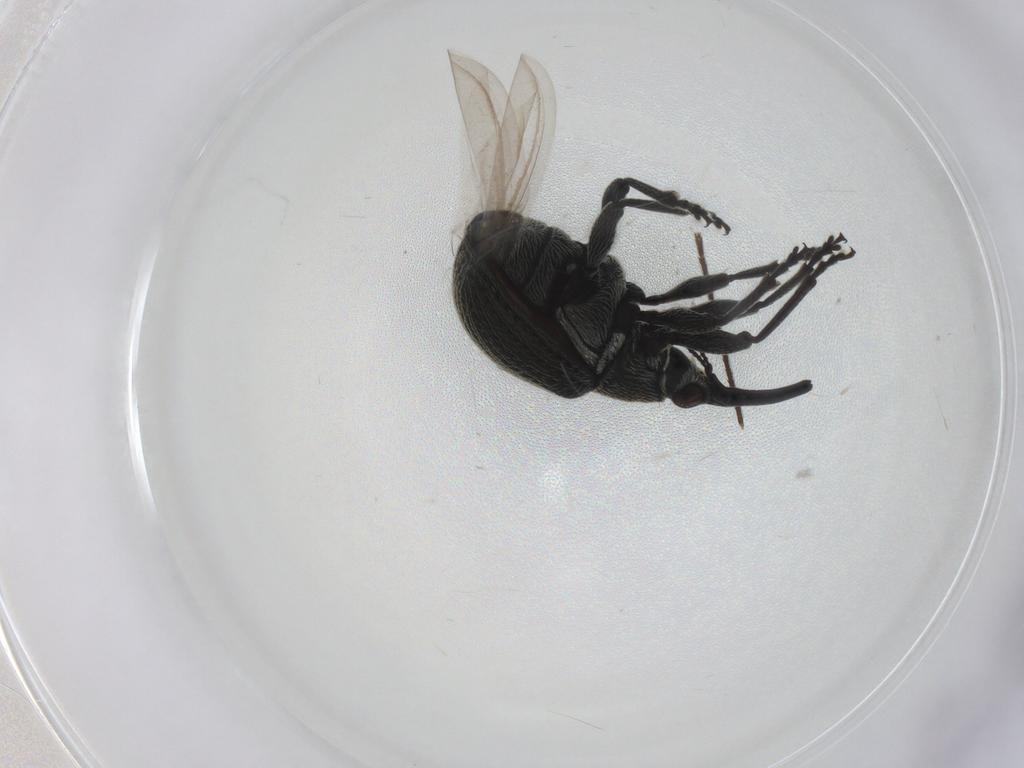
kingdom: Animalia
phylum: Arthropoda
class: Insecta
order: Coleoptera
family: Brentidae
